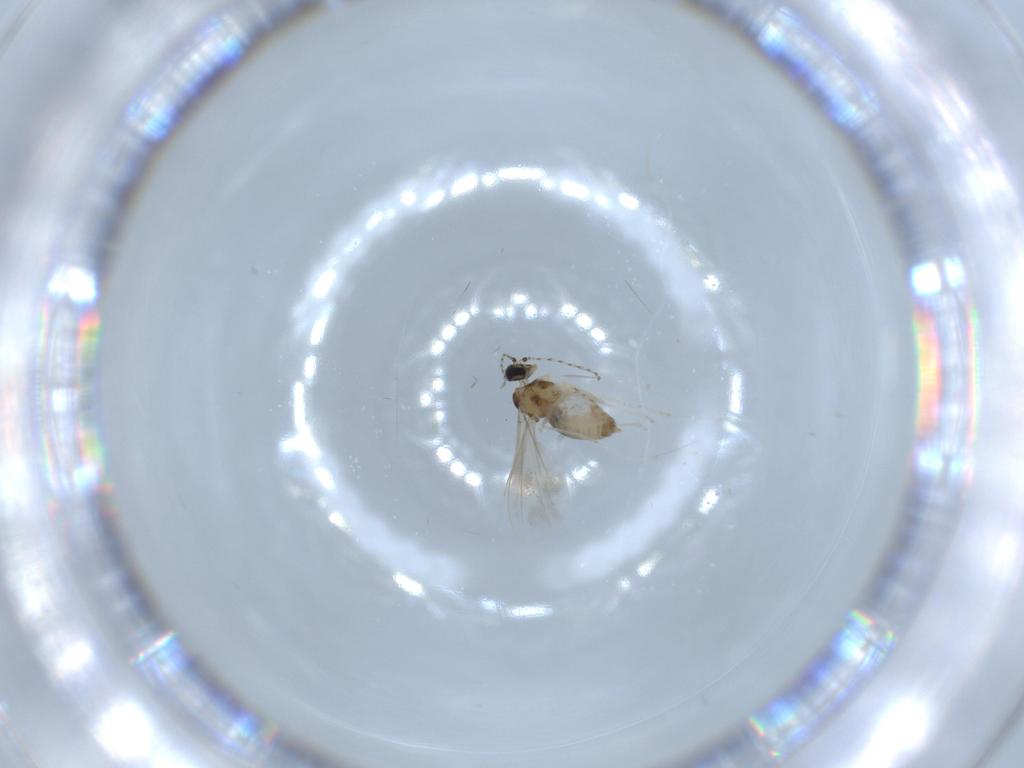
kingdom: Animalia
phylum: Arthropoda
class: Insecta
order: Diptera
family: Cecidomyiidae
